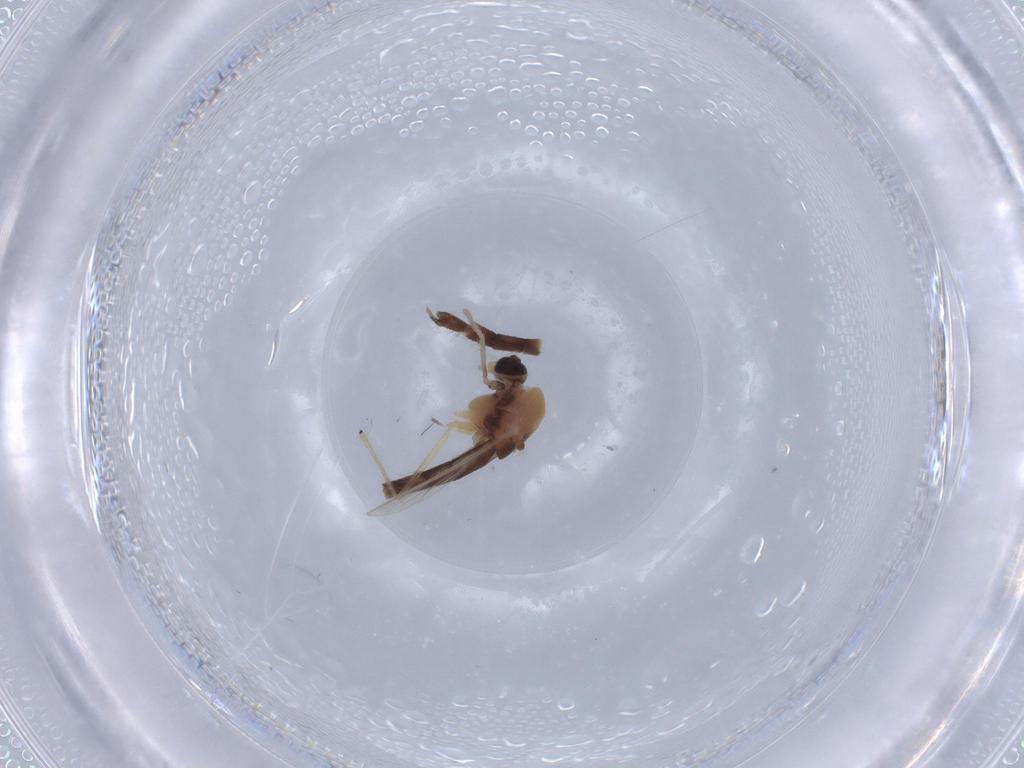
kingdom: Animalia
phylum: Arthropoda
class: Insecta
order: Diptera
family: Chironomidae
